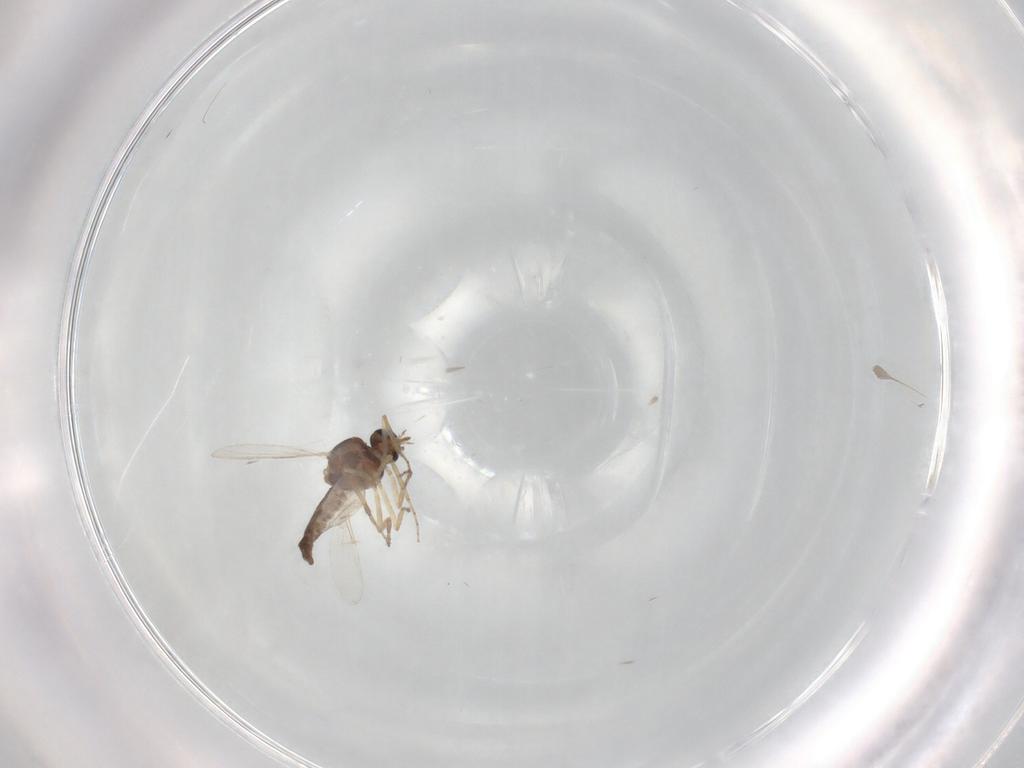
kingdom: Animalia
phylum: Arthropoda
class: Insecta
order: Diptera
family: Ceratopogonidae
